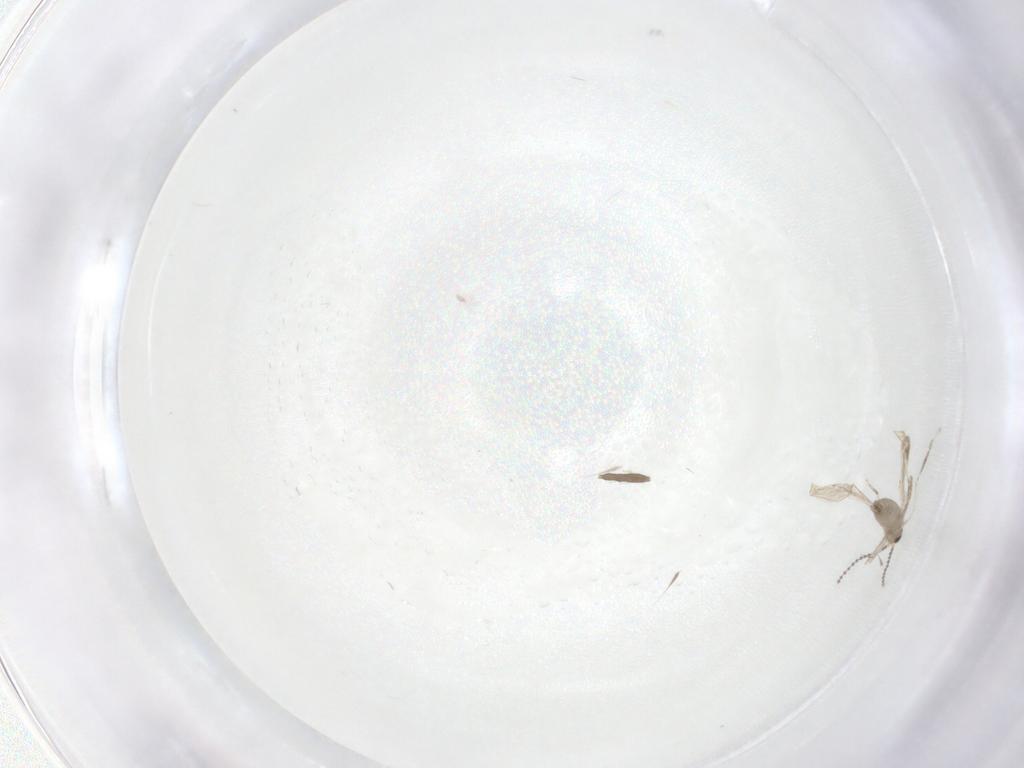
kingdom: Animalia
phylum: Arthropoda
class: Insecta
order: Diptera
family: Cecidomyiidae
